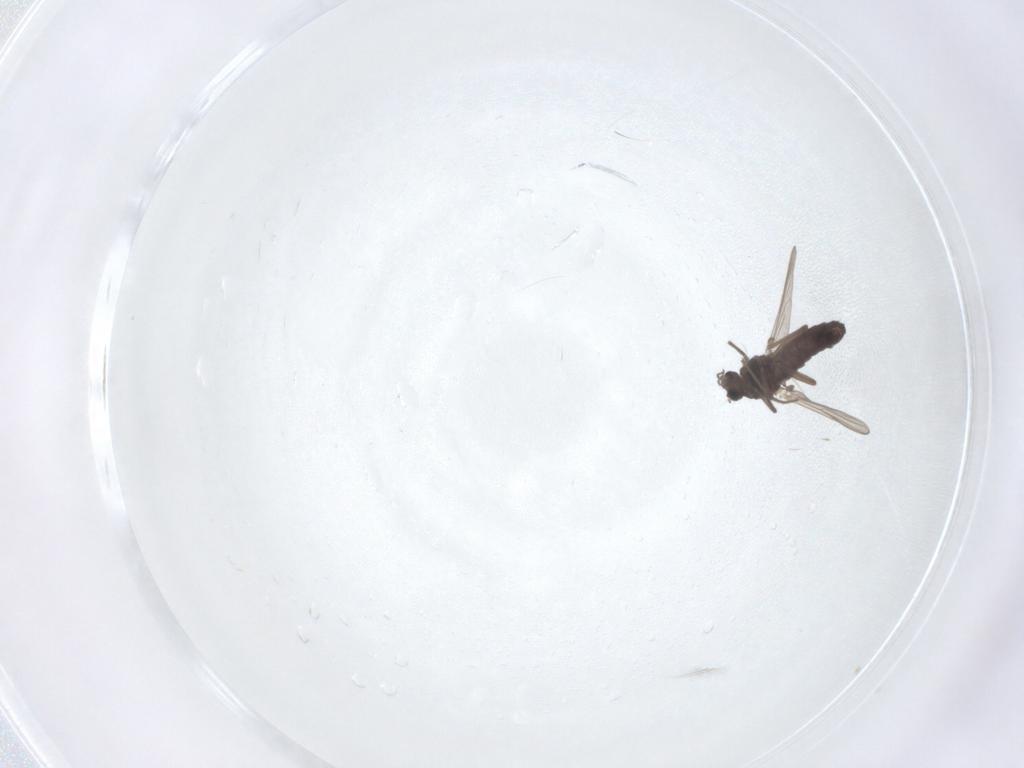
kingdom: Animalia
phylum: Arthropoda
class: Insecta
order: Diptera
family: Chironomidae
